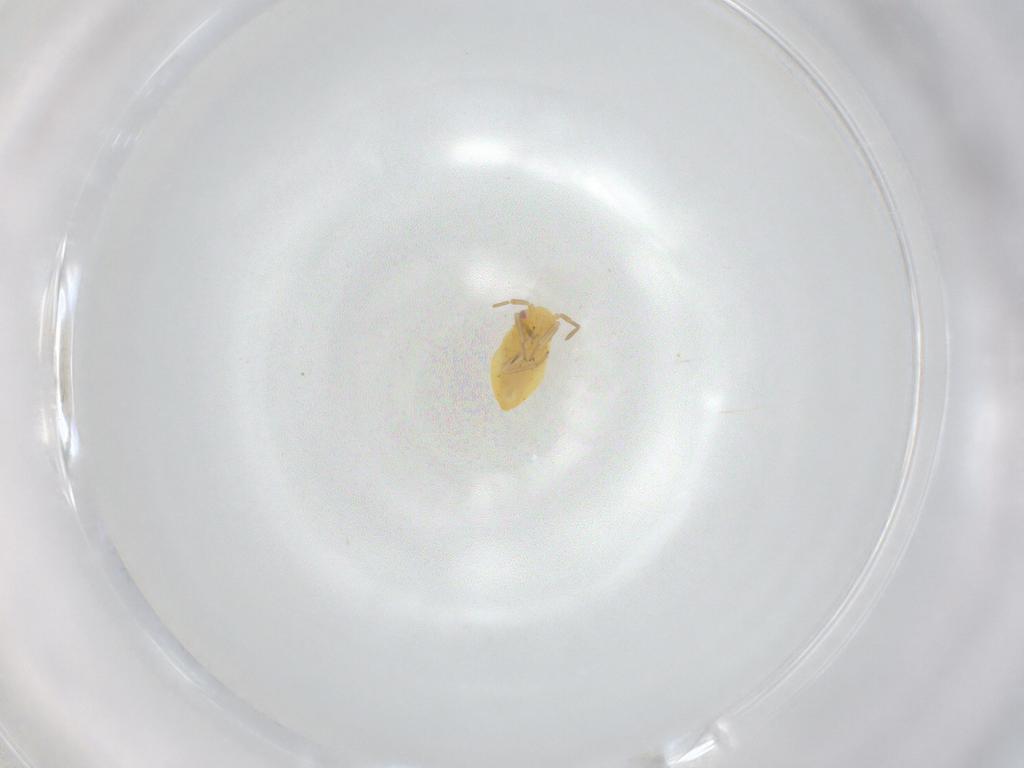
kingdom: Animalia
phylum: Arthropoda
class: Insecta
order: Hemiptera
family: Miridae
